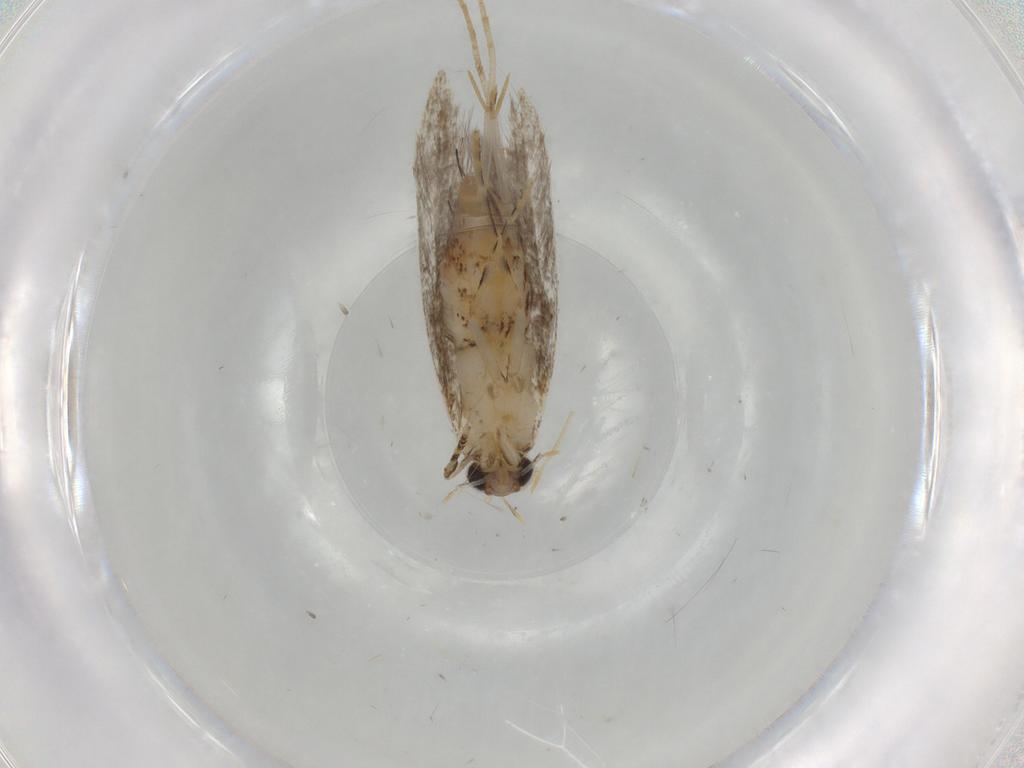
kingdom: Animalia
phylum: Arthropoda
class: Insecta
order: Lepidoptera
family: Tineidae
